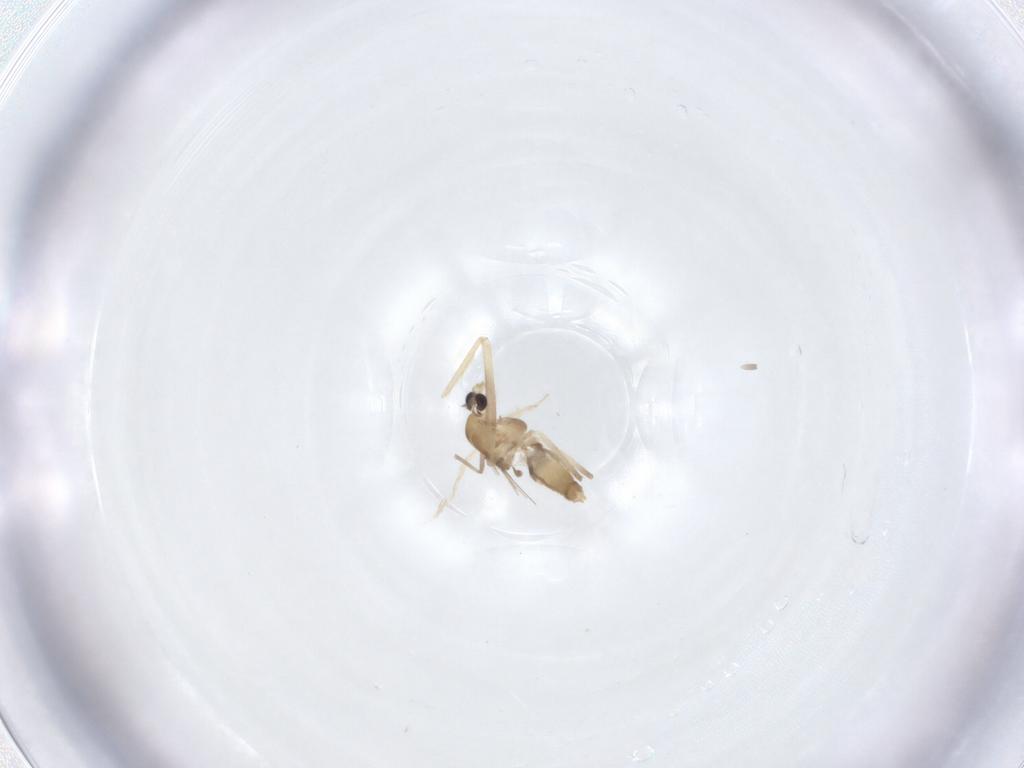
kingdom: Animalia
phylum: Arthropoda
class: Insecta
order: Diptera
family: Chironomidae
